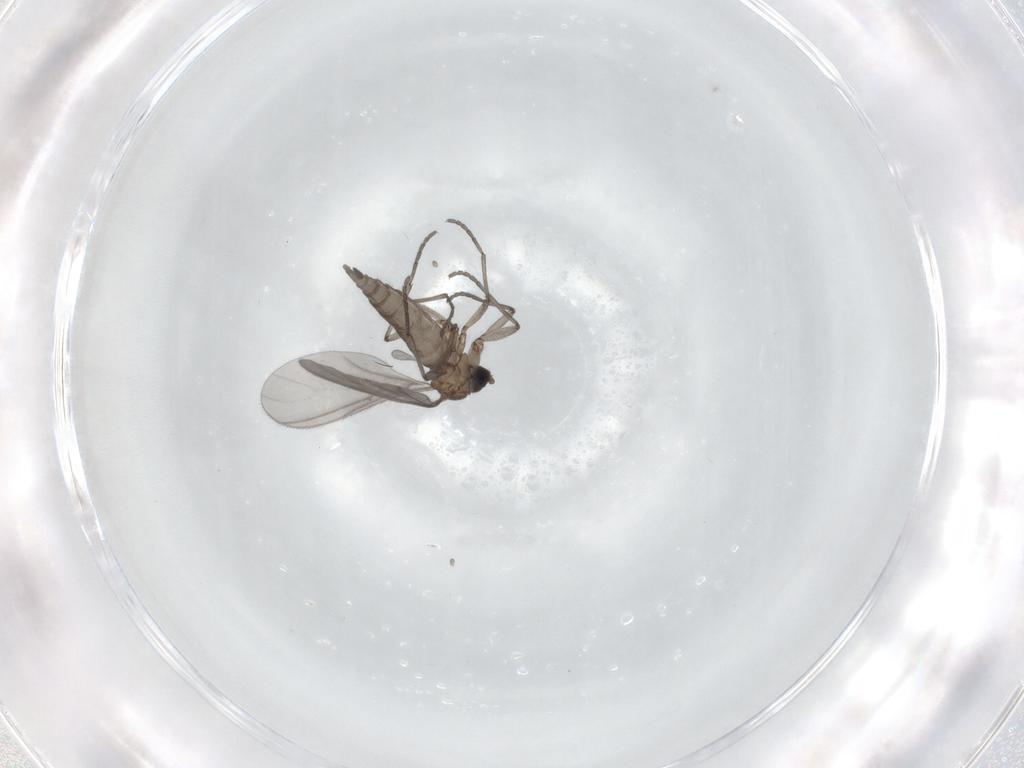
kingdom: Animalia
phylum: Arthropoda
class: Insecta
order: Diptera
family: Sciaridae
